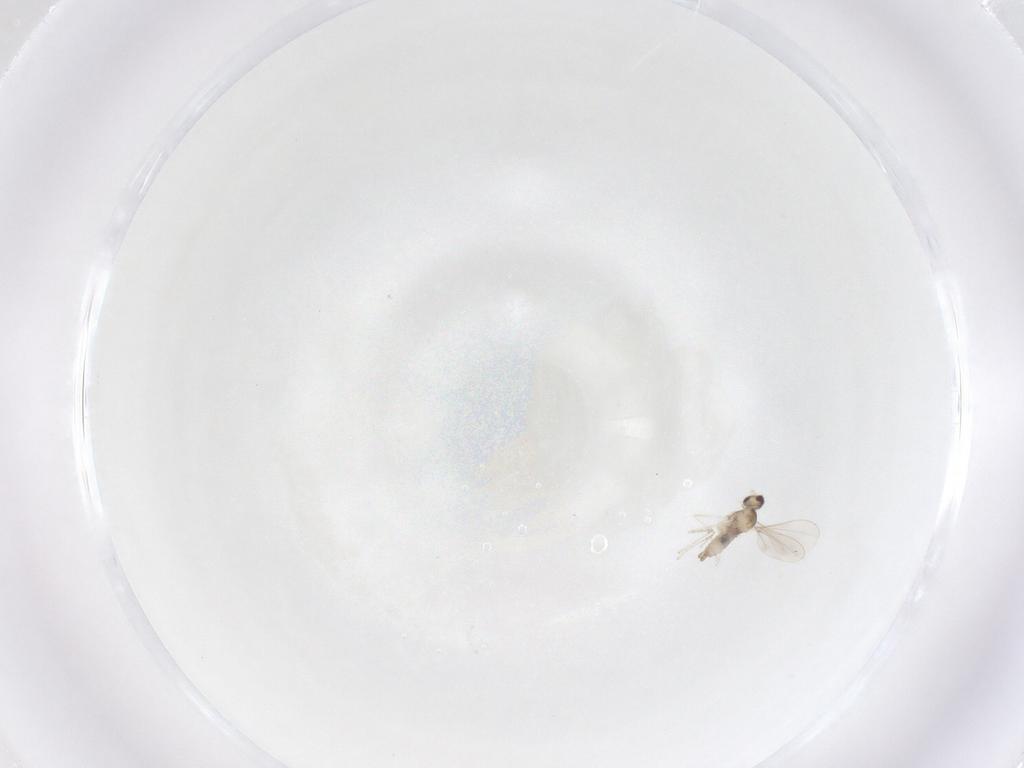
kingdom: Animalia
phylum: Arthropoda
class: Insecta
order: Diptera
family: Cecidomyiidae
